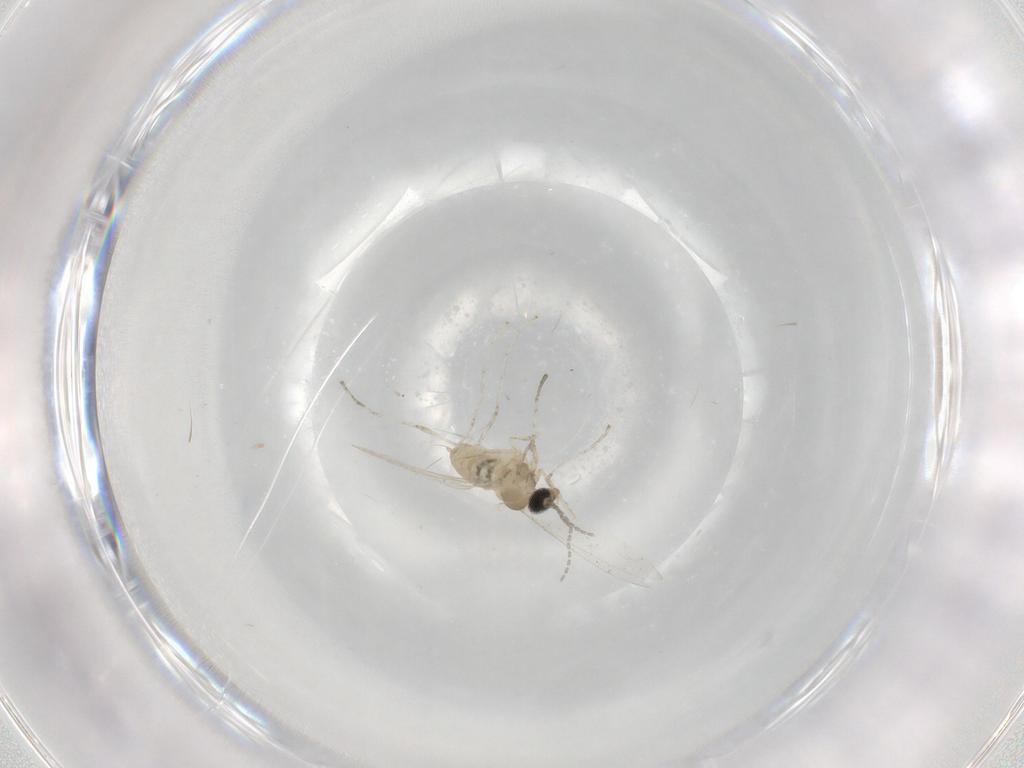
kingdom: Animalia
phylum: Arthropoda
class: Insecta
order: Diptera
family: Cecidomyiidae
